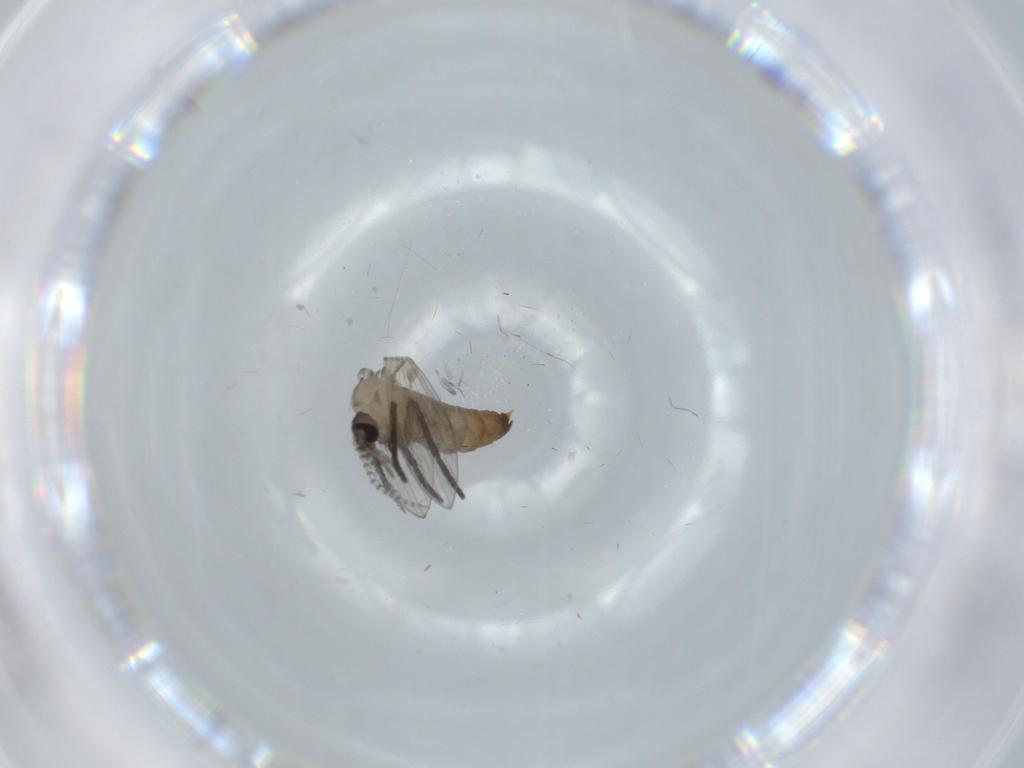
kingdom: Animalia
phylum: Arthropoda
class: Insecta
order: Diptera
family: Psychodidae
